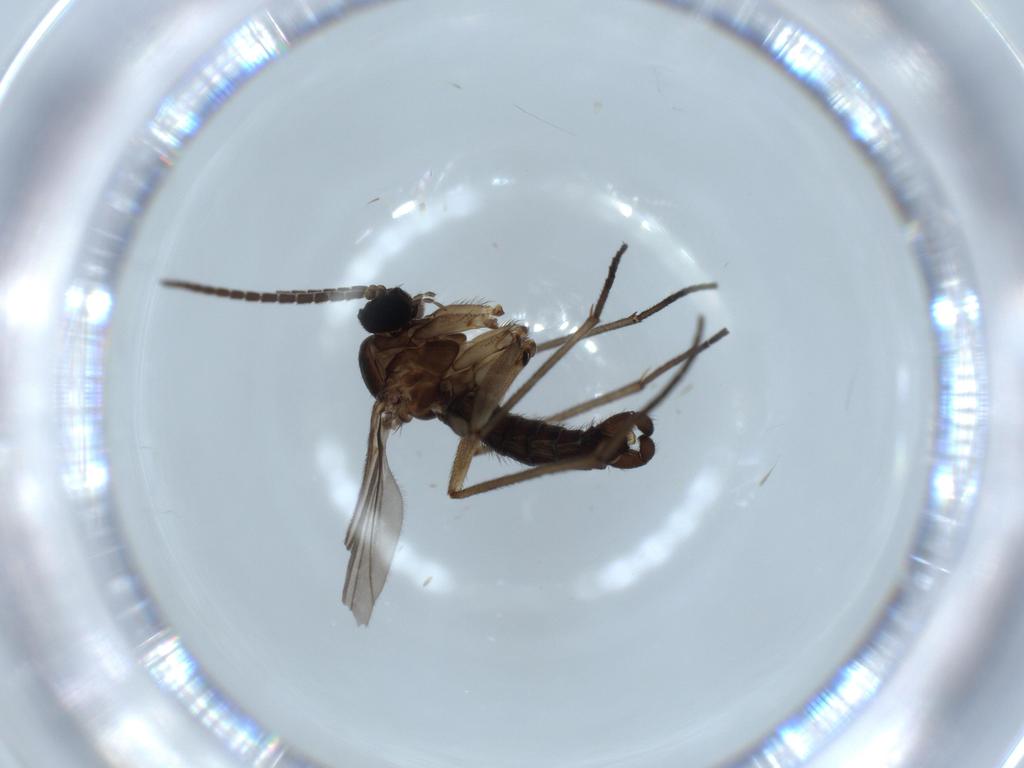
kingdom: Animalia
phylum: Arthropoda
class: Insecta
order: Diptera
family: Sciaridae
